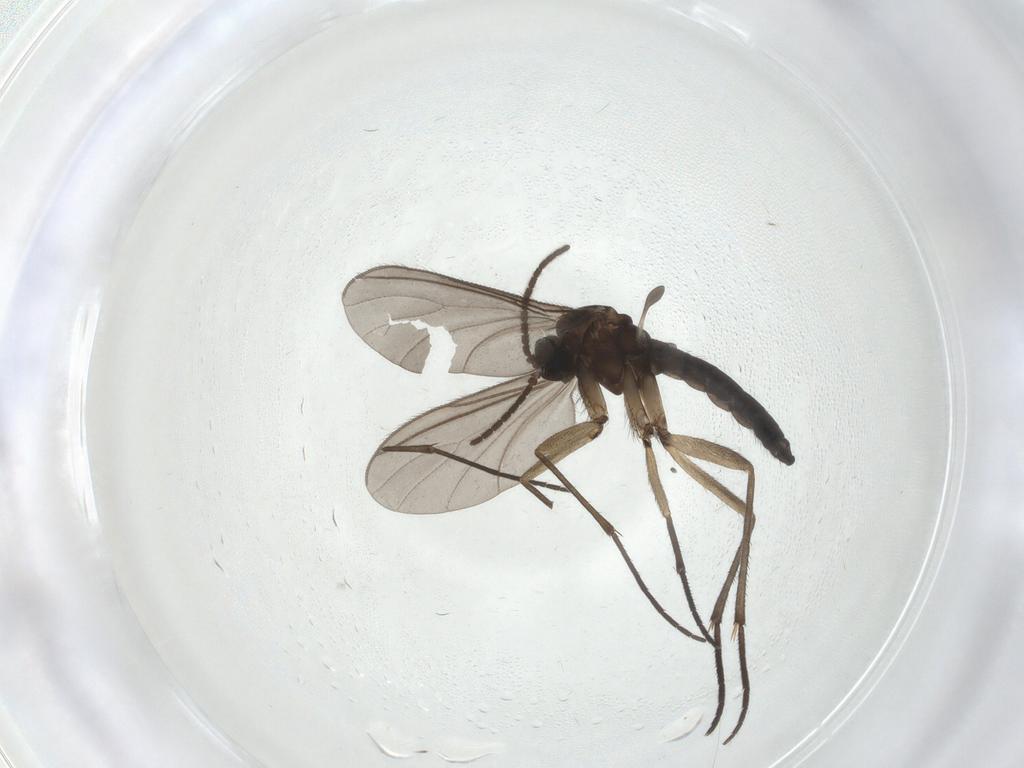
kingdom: Animalia
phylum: Arthropoda
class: Insecta
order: Diptera
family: Sciaridae
